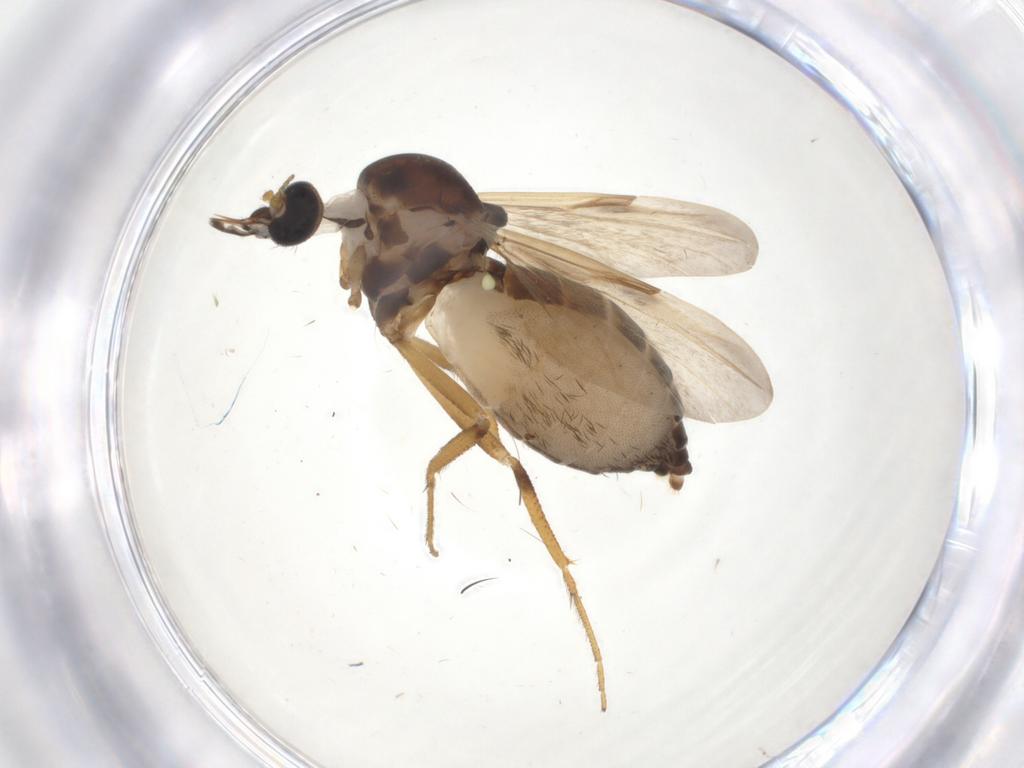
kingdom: Animalia
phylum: Arthropoda
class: Insecta
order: Diptera
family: Ceratopogonidae
